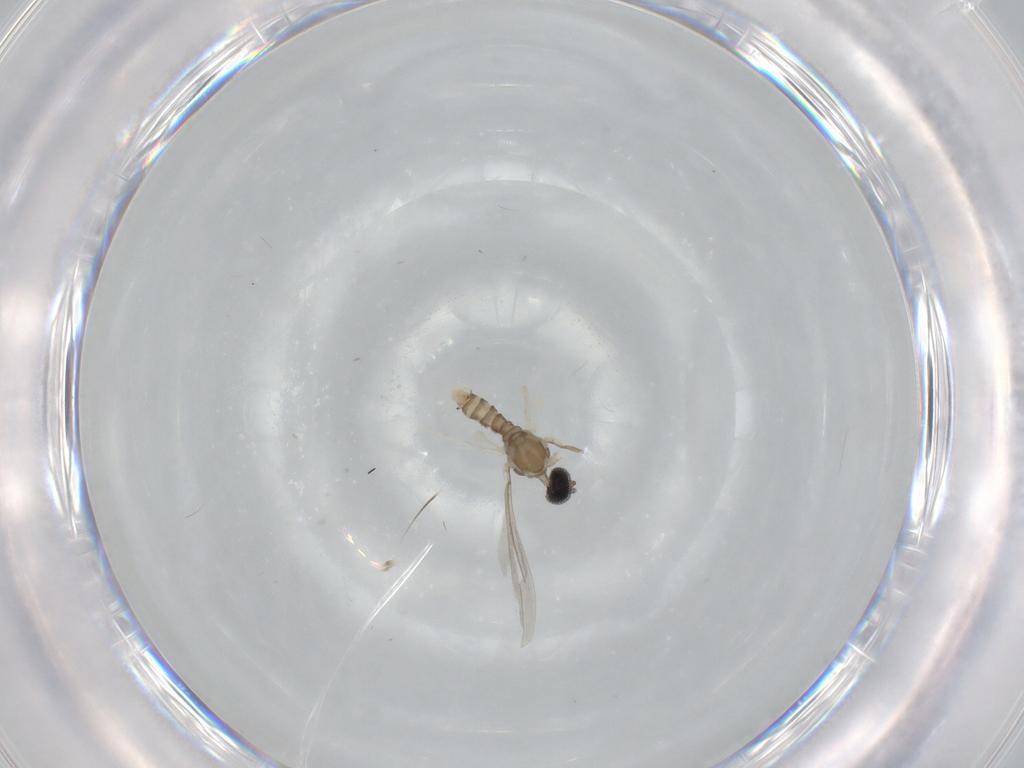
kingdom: Animalia
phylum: Arthropoda
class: Insecta
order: Diptera
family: Cecidomyiidae
